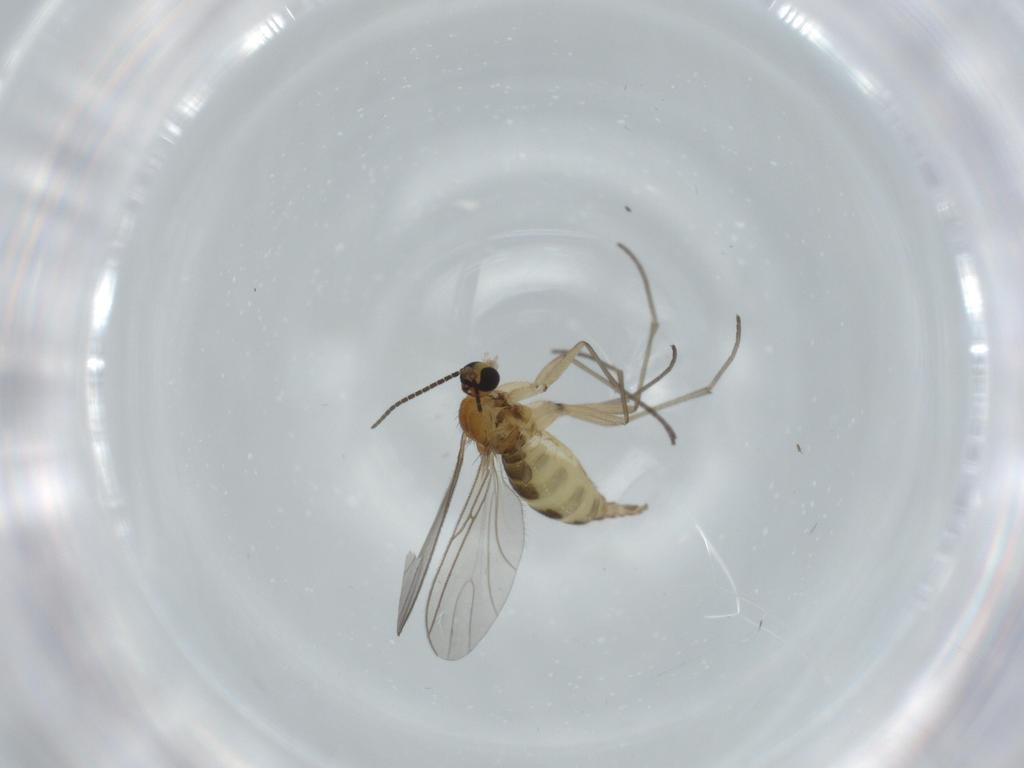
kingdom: Animalia
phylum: Arthropoda
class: Insecta
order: Diptera
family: Sciaridae
